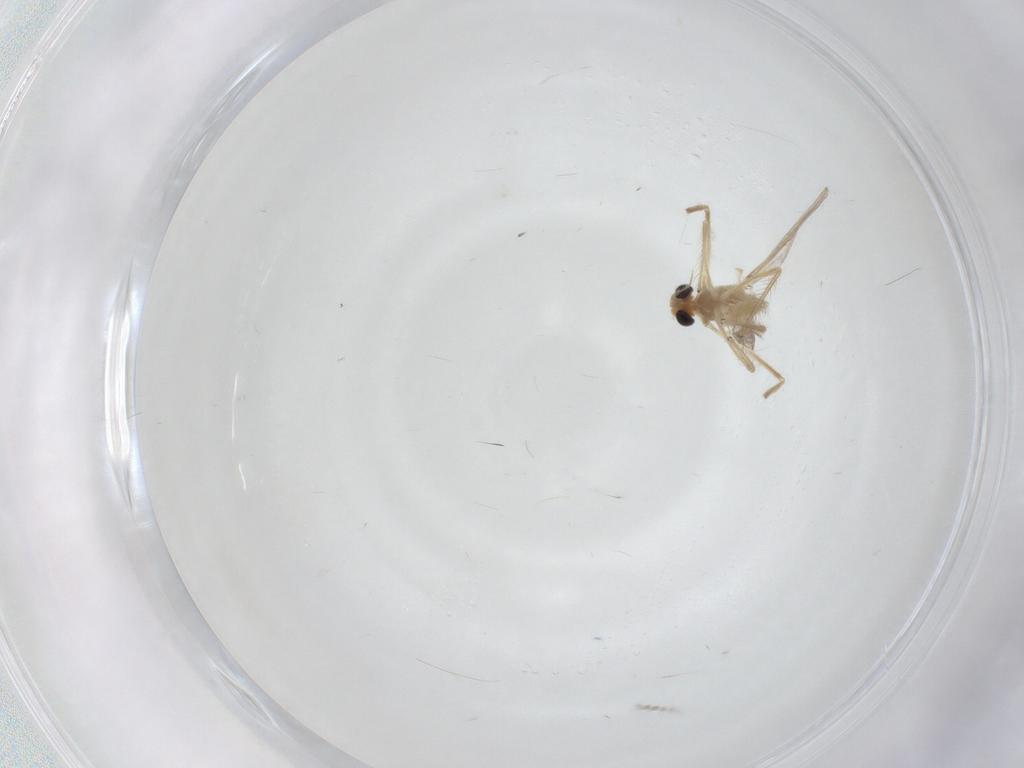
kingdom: Animalia
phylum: Arthropoda
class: Insecta
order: Diptera
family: Chironomidae
